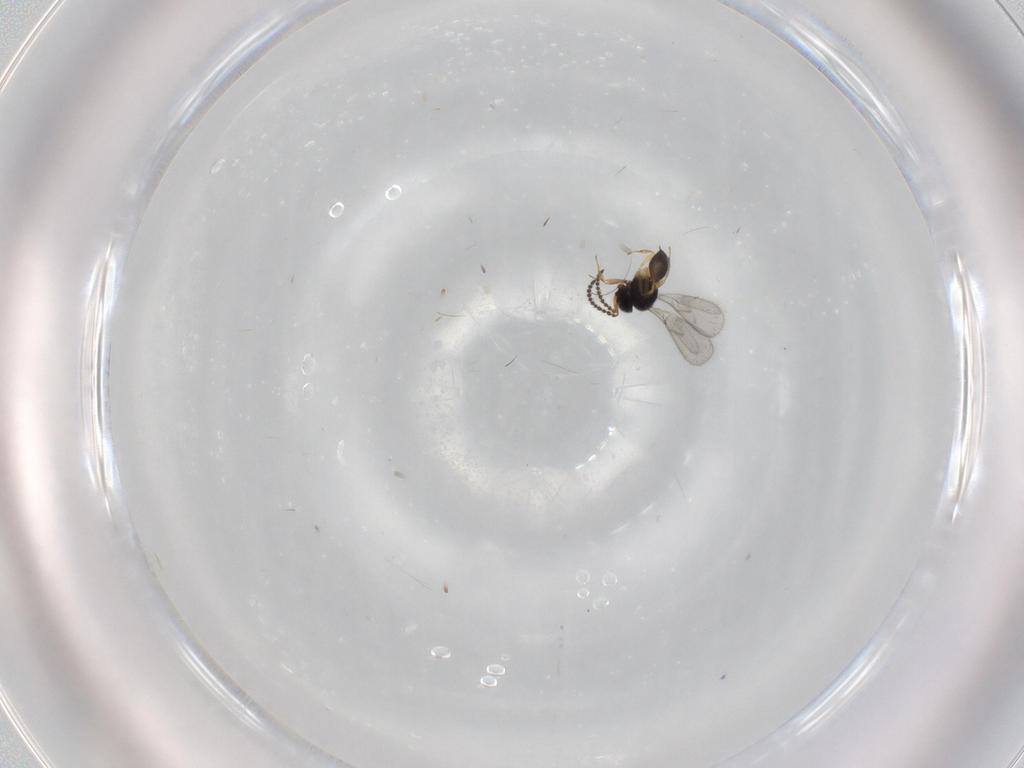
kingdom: Animalia
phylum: Arthropoda
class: Insecta
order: Hymenoptera
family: Scelionidae
